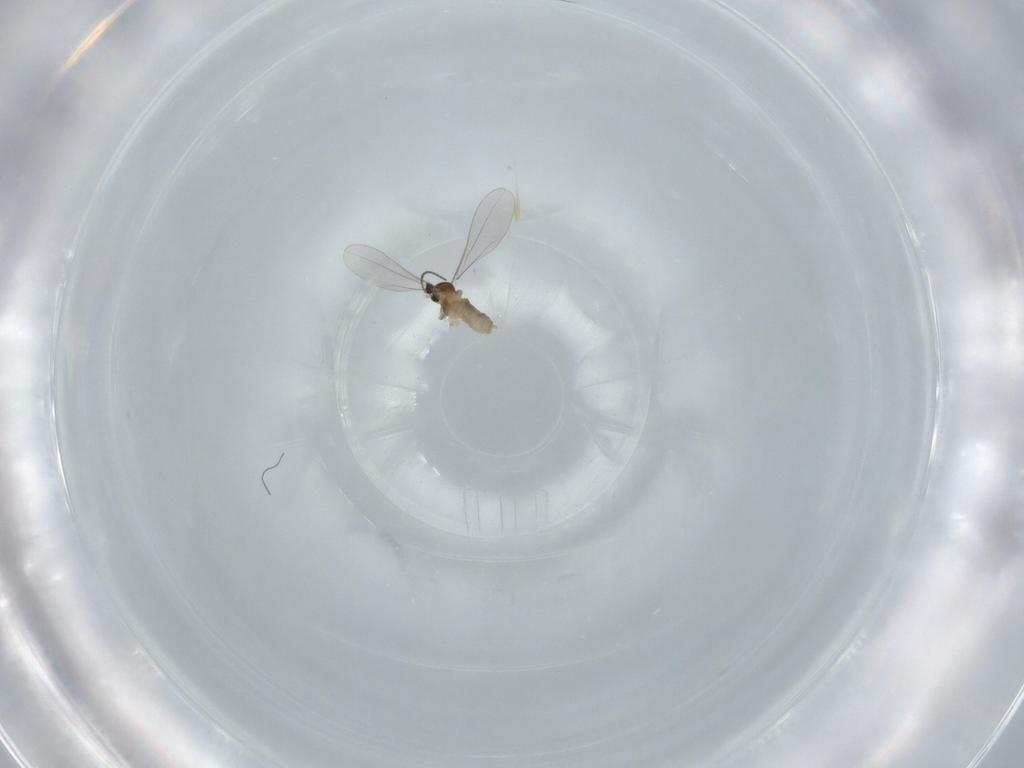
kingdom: Animalia
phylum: Arthropoda
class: Insecta
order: Diptera
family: Cecidomyiidae
